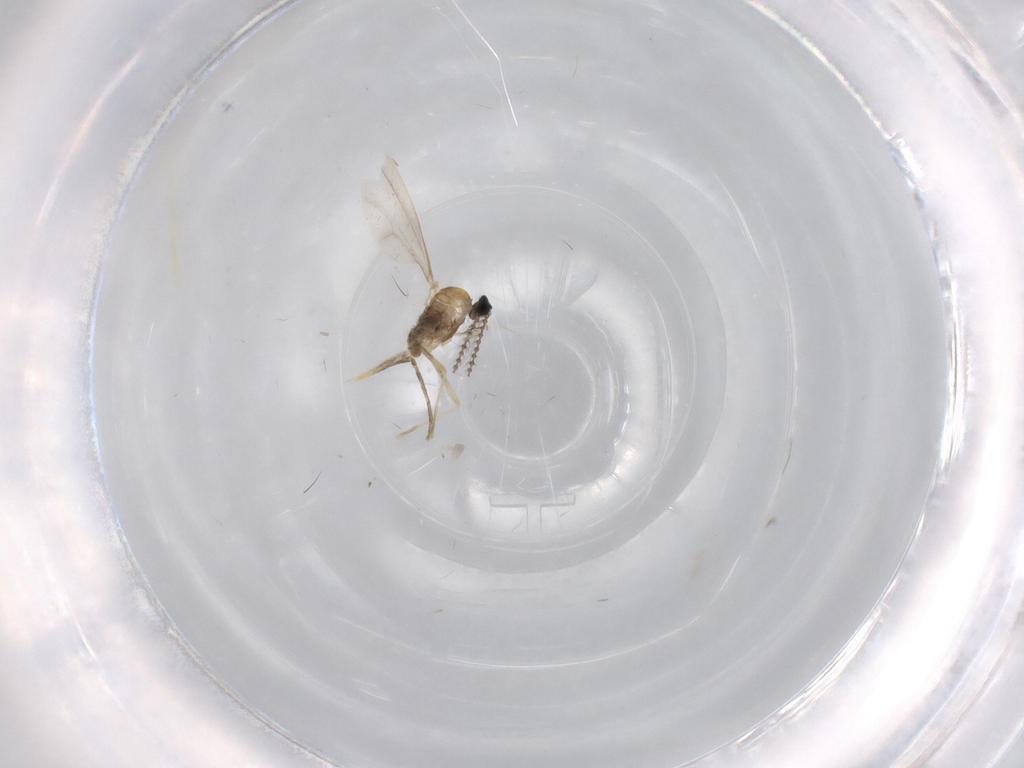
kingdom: Animalia
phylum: Arthropoda
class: Insecta
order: Diptera
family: Cecidomyiidae
